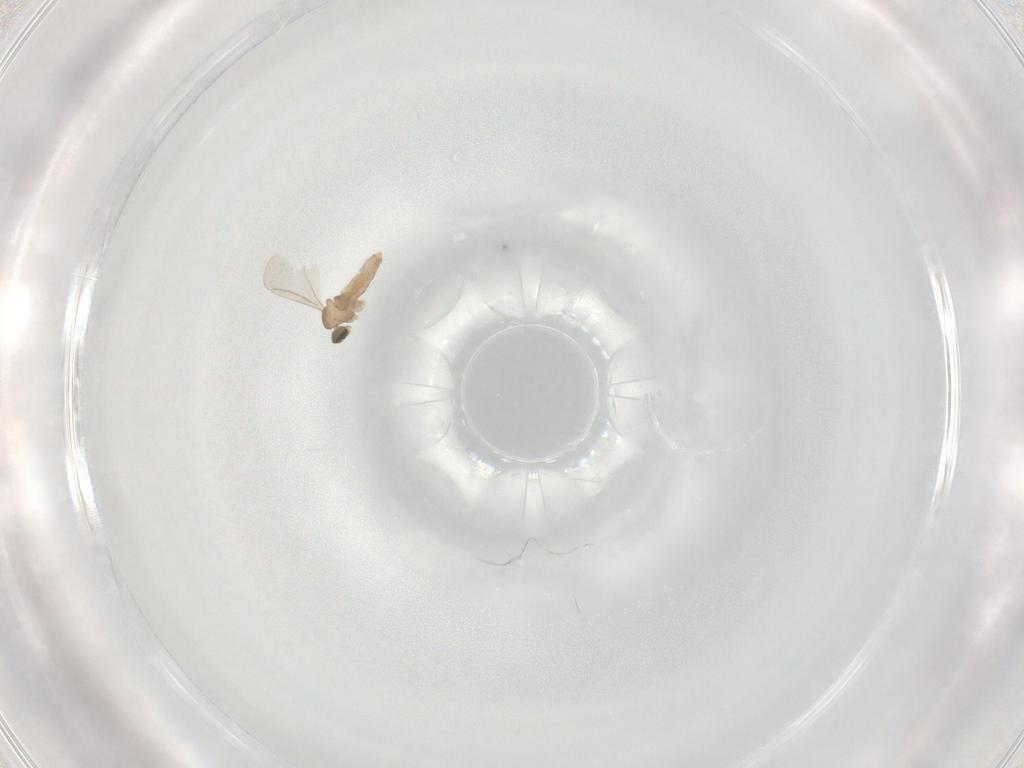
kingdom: Animalia
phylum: Arthropoda
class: Insecta
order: Diptera
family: Cecidomyiidae
